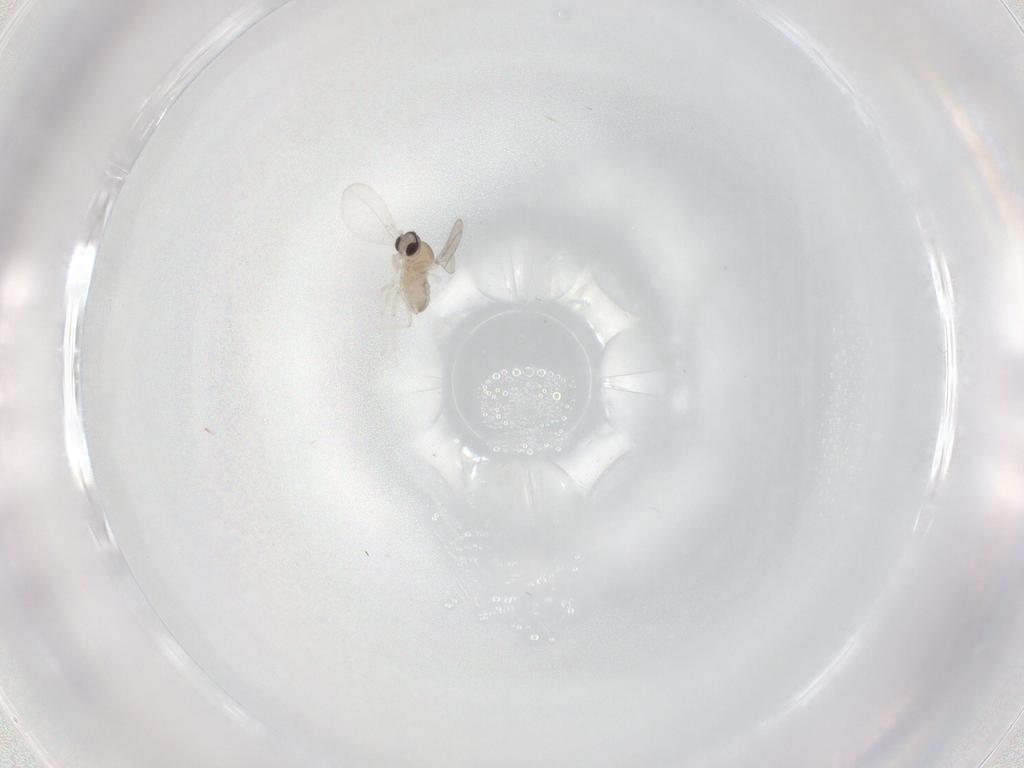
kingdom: Animalia
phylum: Arthropoda
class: Insecta
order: Diptera
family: Cecidomyiidae
